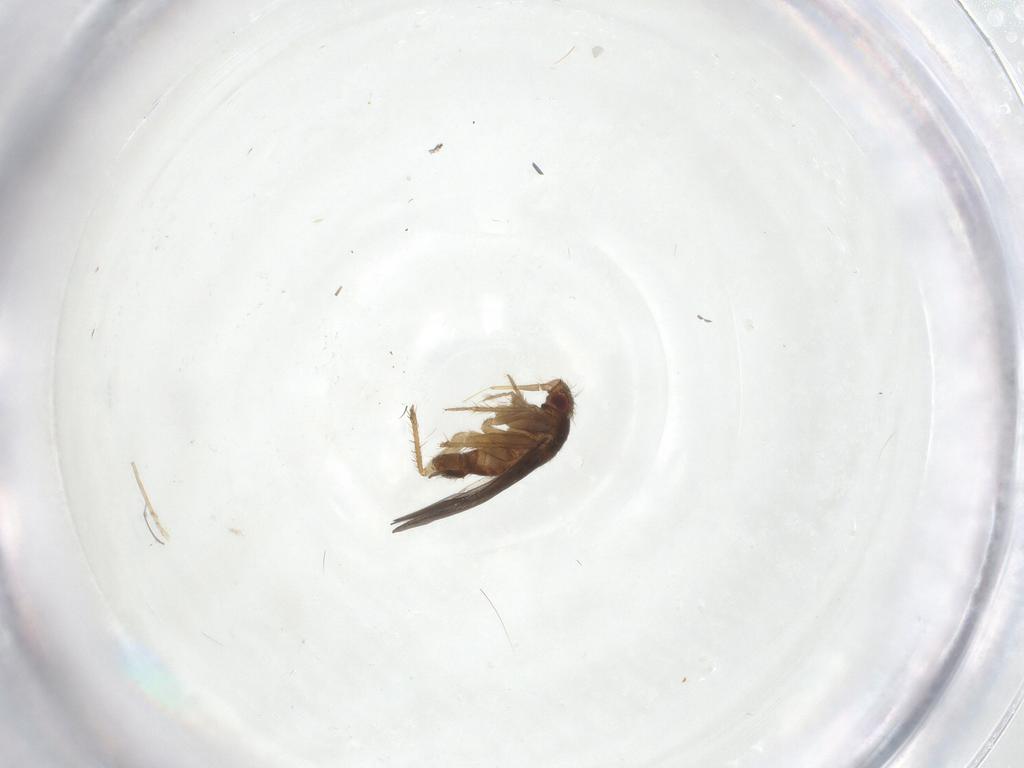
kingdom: Animalia
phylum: Arthropoda
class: Insecta
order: Hemiptera
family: Ceratocombidae
